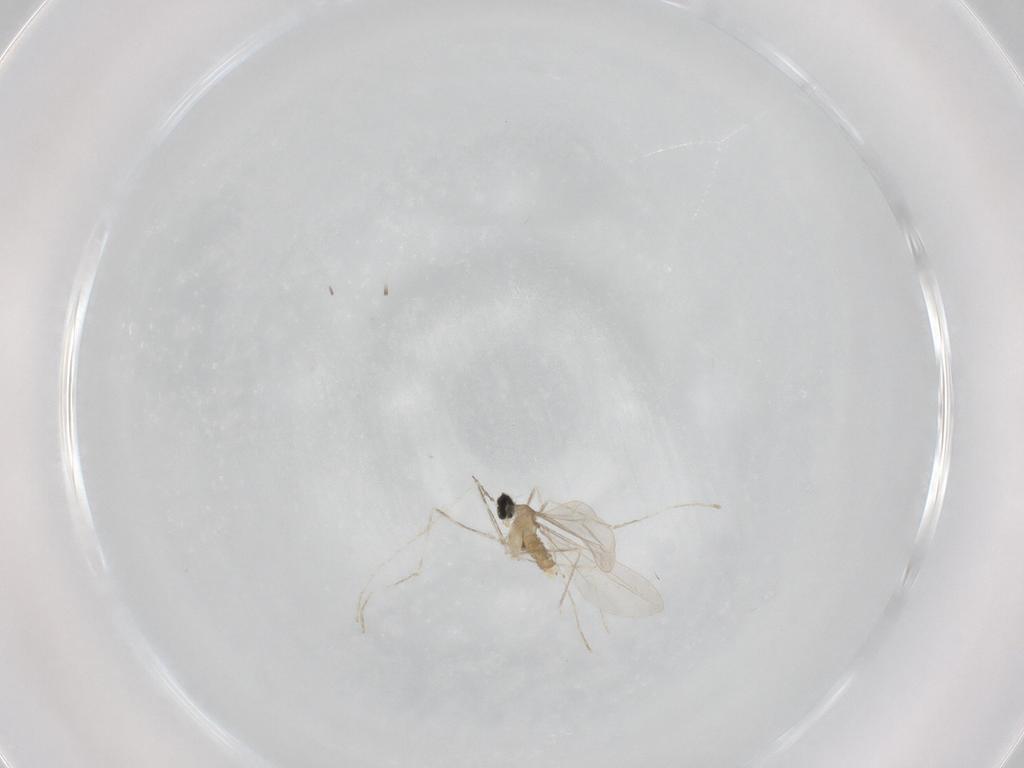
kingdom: Animalia
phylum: Arthropoda
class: Insecta
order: Diptera
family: Cecidomyiidae
